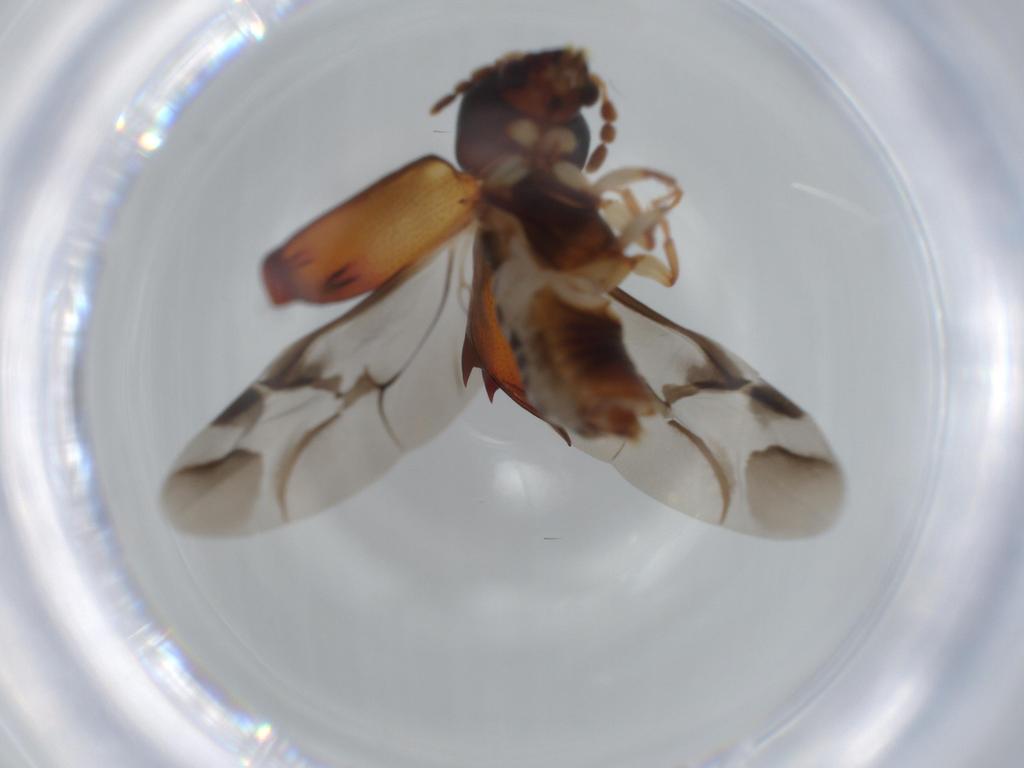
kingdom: Animalia
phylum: Arthropoda
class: Insecta
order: Coleoptera
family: Bostrichidae
